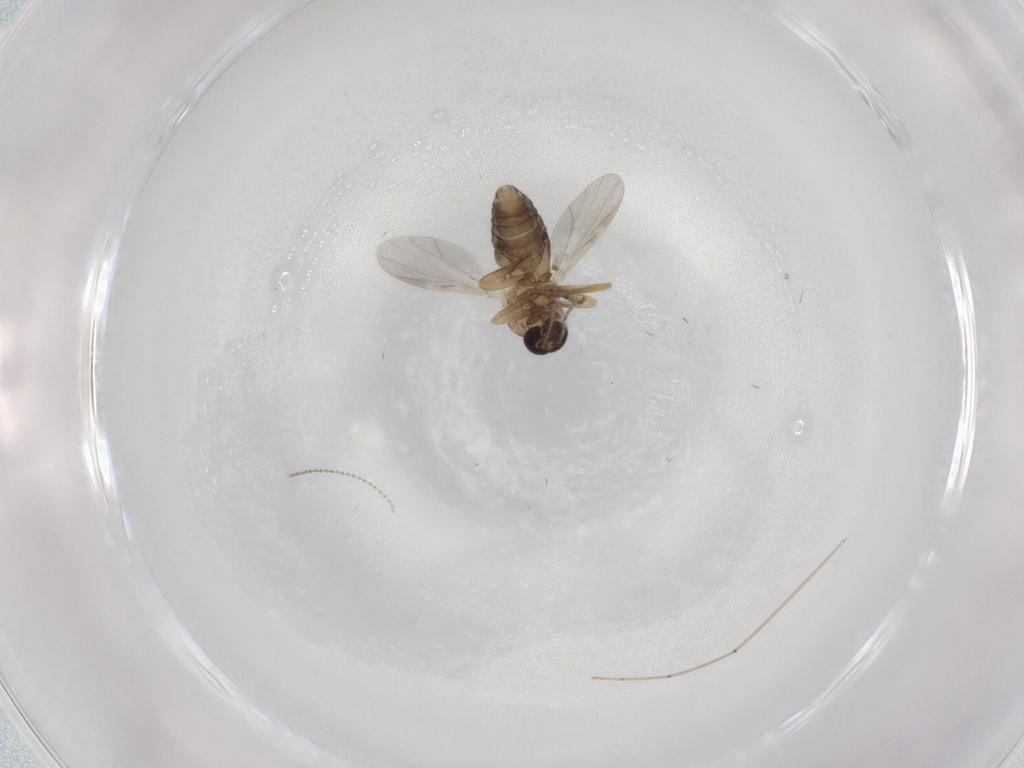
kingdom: Animalia
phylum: Arthropoda
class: Insecta
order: Diptera
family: Ceratopogonidae
